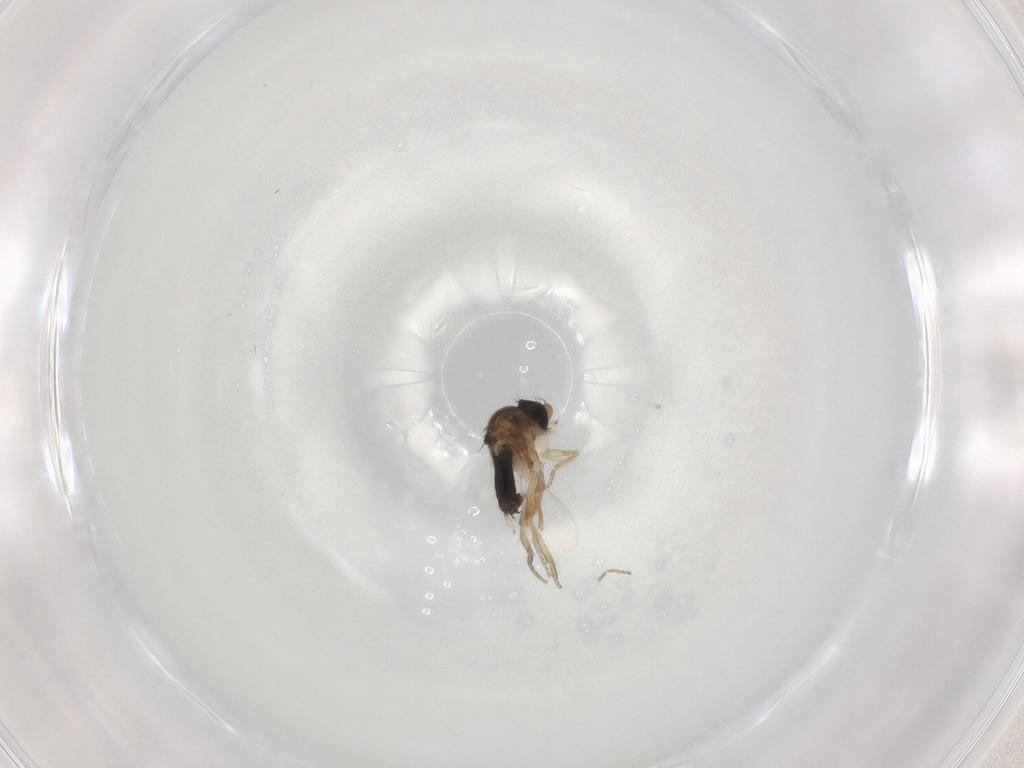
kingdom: Animalia
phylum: Arthropoda
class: Insecta
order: Diptera
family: Phoridae
